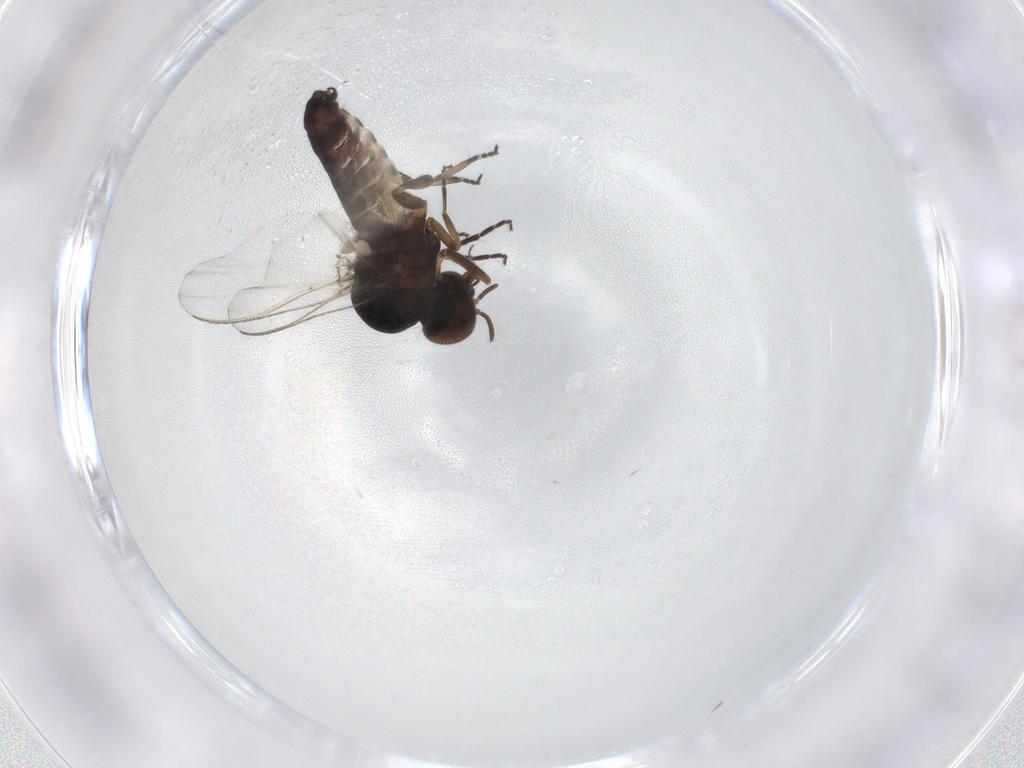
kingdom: Animalia
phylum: Arthropoda
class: Insecta
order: Diptera
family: Simuliidae
